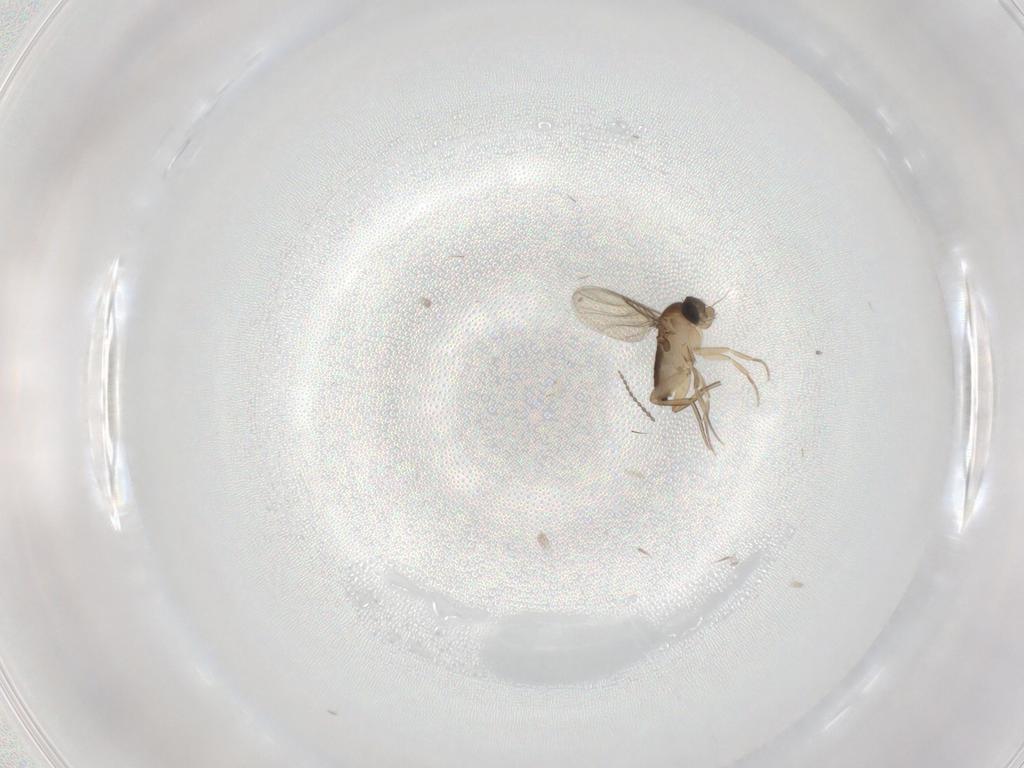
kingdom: Animalia
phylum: Arthropoda
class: Insecta
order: Diptera
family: Phoridae
